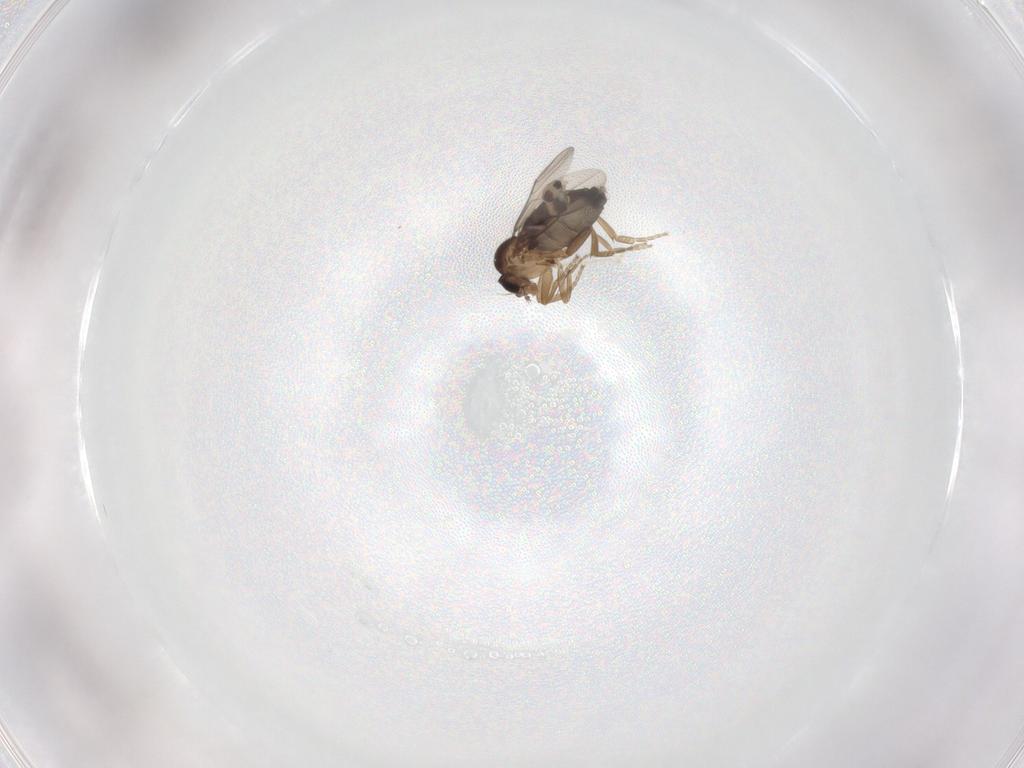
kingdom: Animalia
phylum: Arthropoda
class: Insecta
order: Diptera
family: Phoridae
